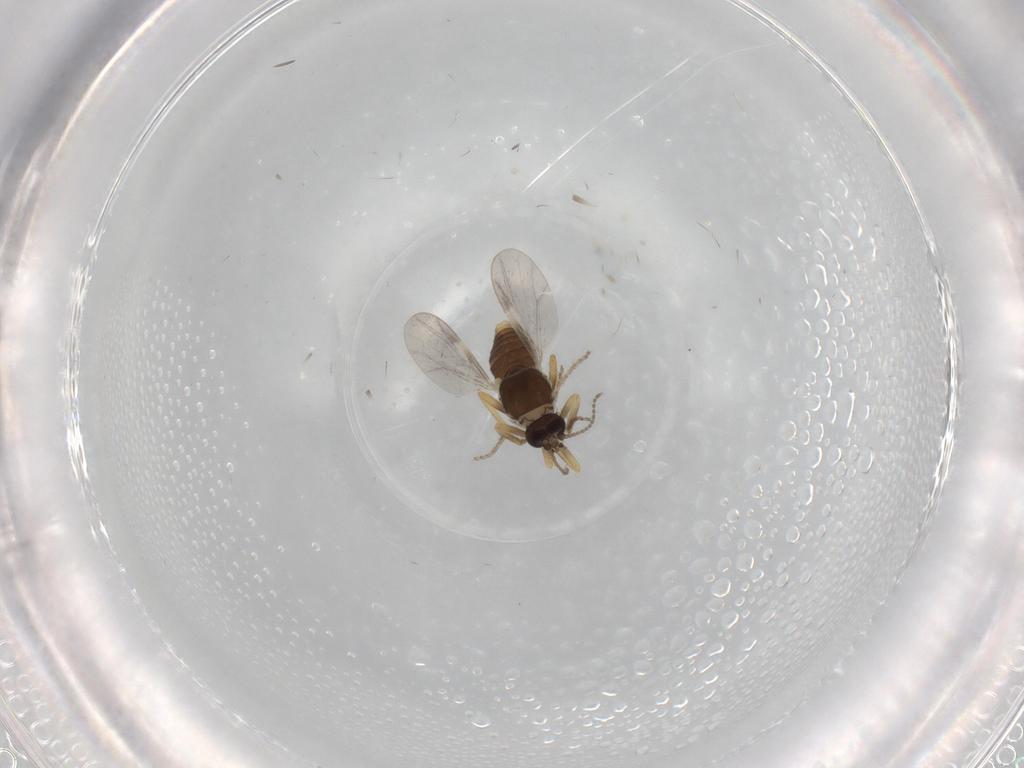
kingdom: Animalia
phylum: Arthropoda
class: Insecta
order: Diptera
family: Ceratopogonidae
